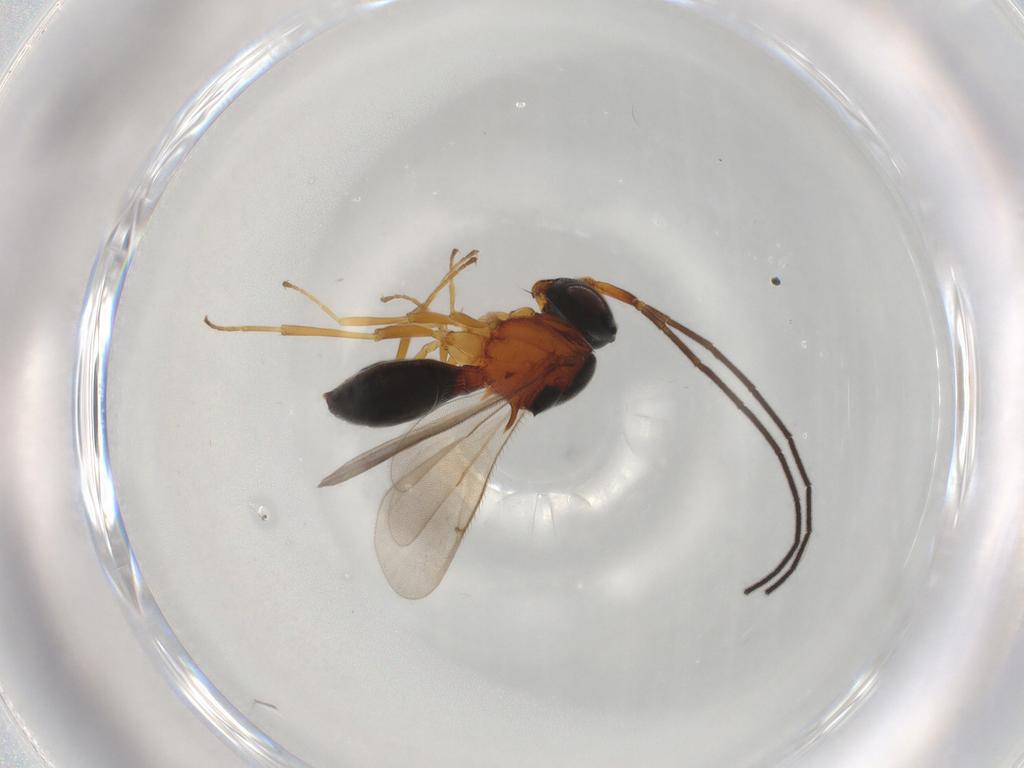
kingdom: Animalia
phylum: Arthropoda
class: Insecta
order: Hymenoptera
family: Scelionidae
